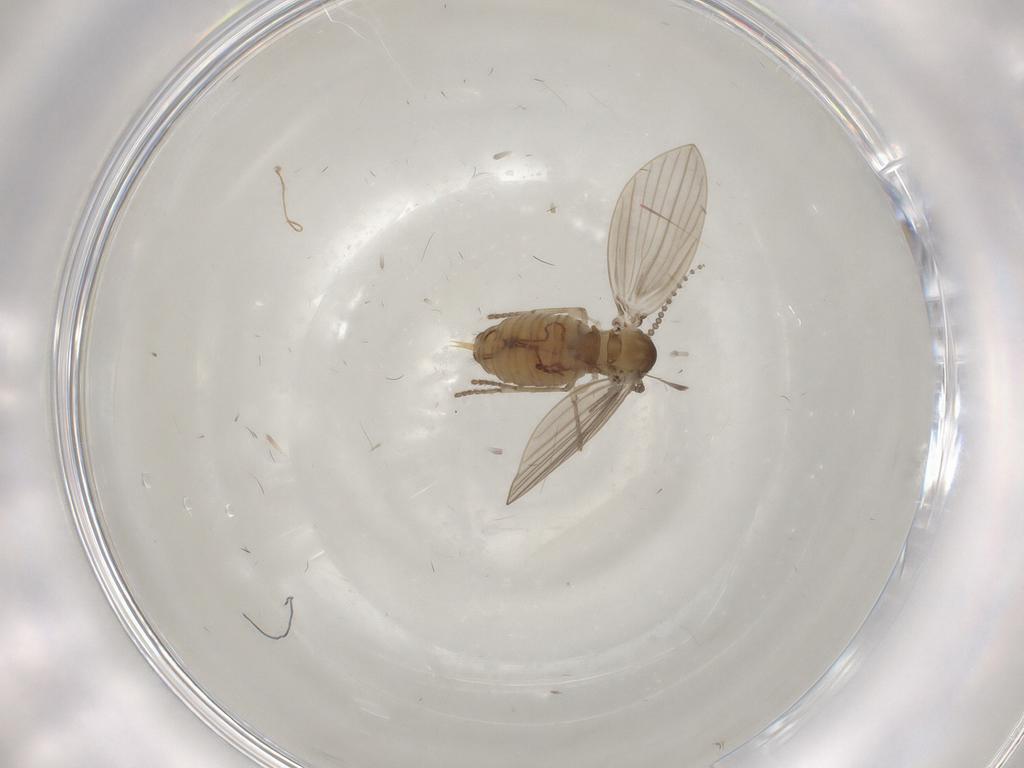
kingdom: Animalia
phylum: Arthropoda
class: Insecta
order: Diptera
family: Psychodidae
